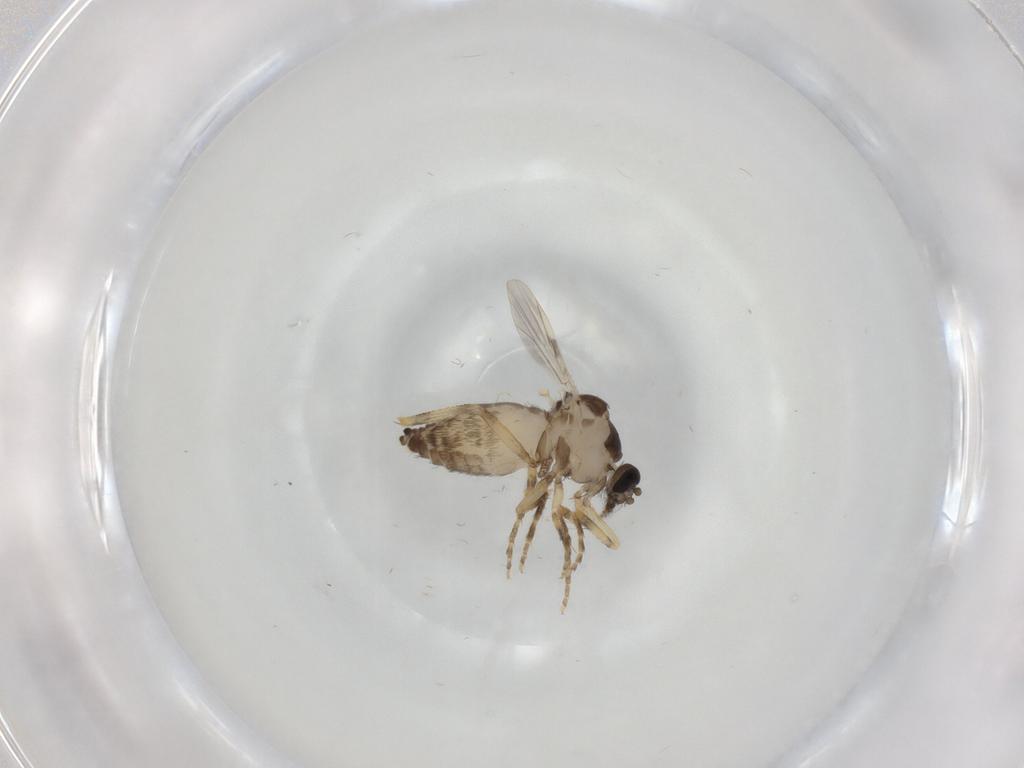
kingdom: Animalia
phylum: Arthropoda
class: Insecta
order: Diptera
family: Ceratopogonidae
